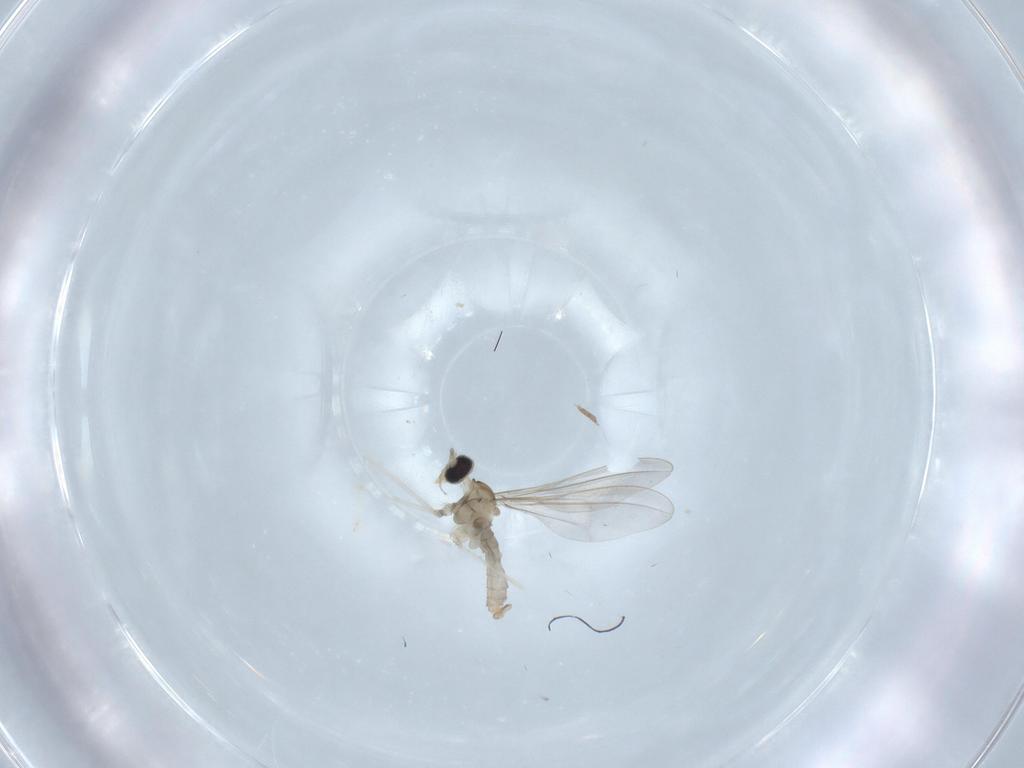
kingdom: Animalia
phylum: Arthropoda
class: Insecta
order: Diptera
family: Cecidomyiidae
